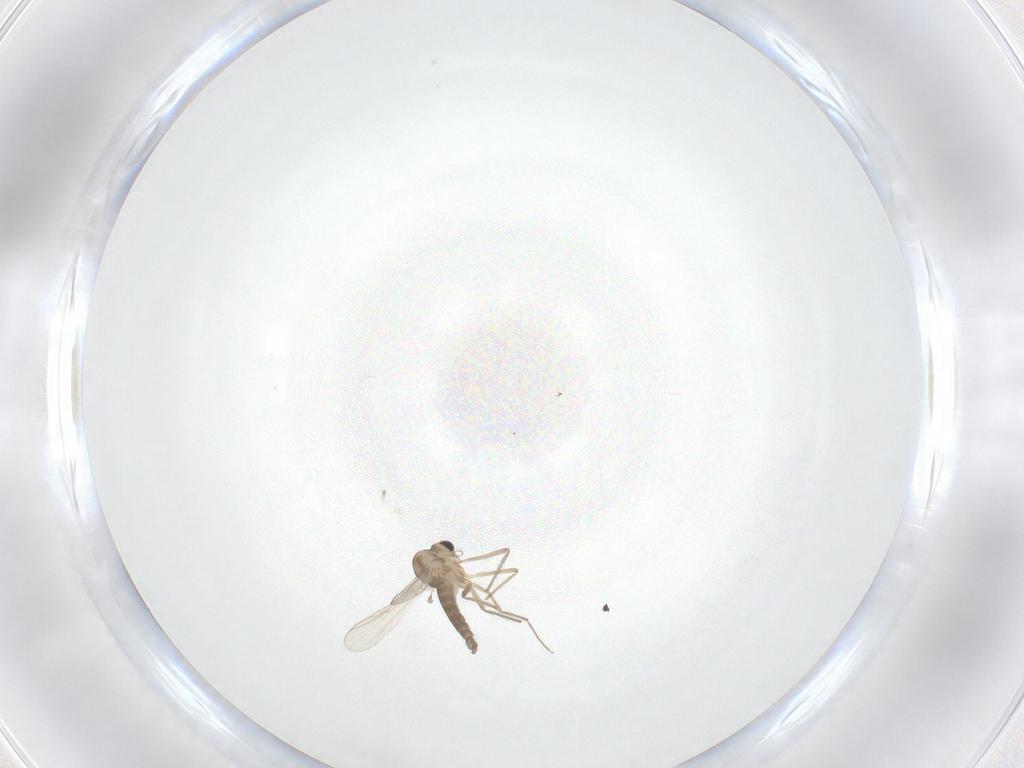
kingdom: Animalia
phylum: Arthropoda
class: Insecta
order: Diptera
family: Chironomidae
